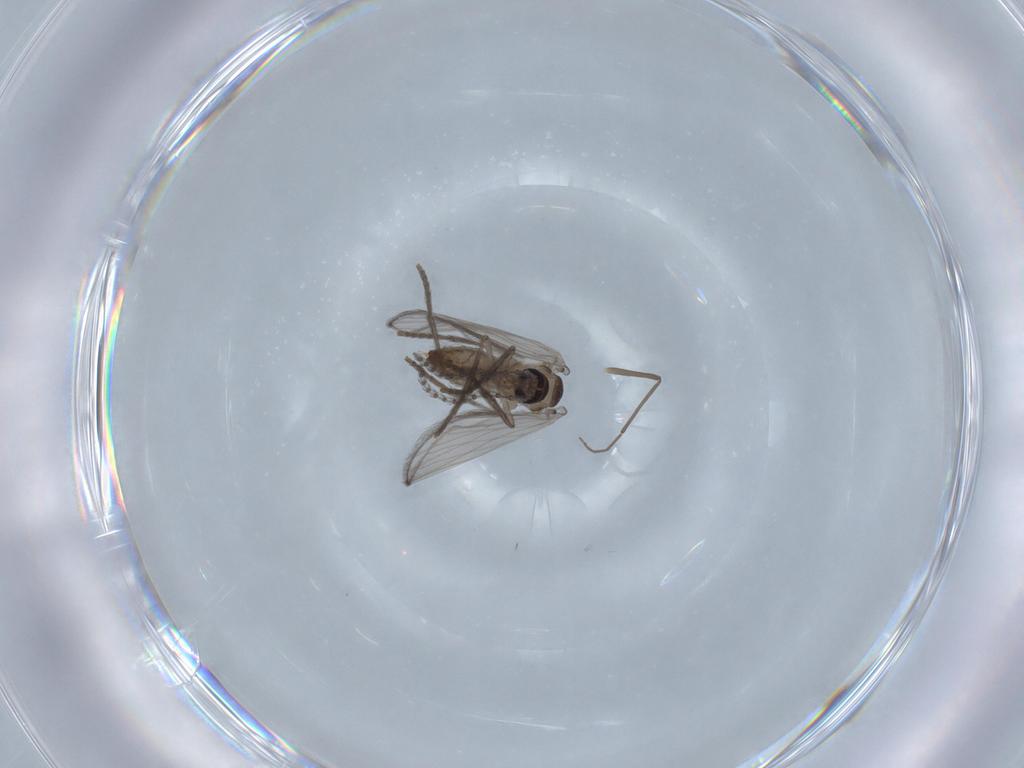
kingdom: Animalia
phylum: Arthropoda
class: Insecta
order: Diptera
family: Psychodidae
